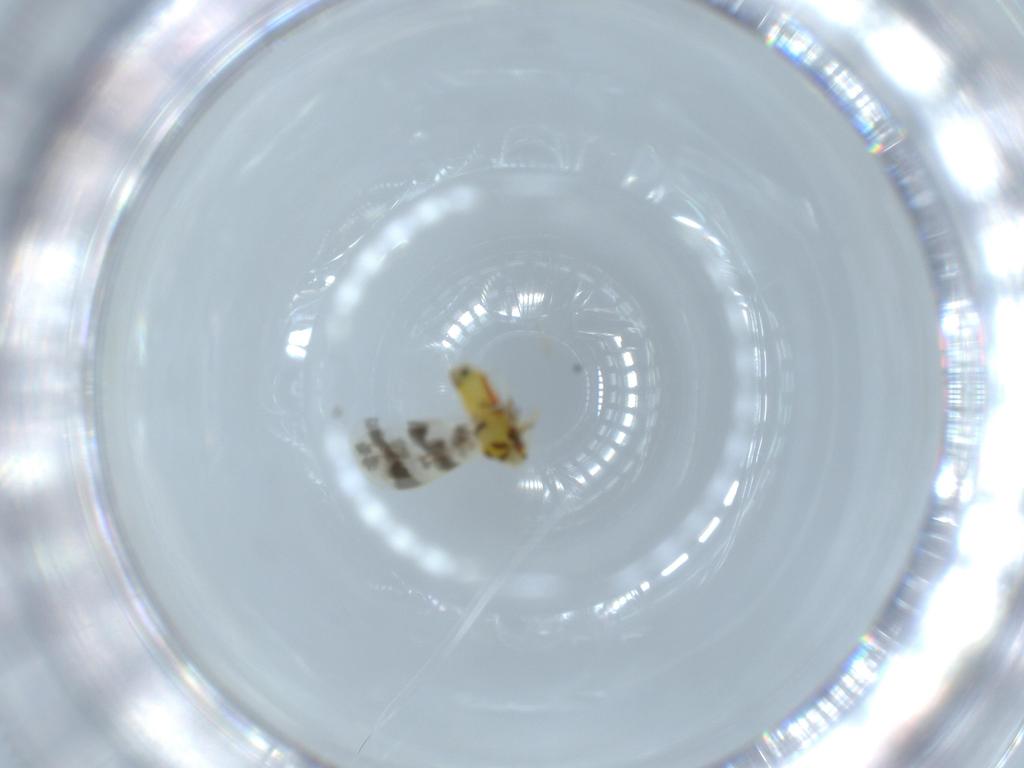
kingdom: Animalia
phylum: Arthropoda
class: Insecta
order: Hemiptera
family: Aleyrodidae
